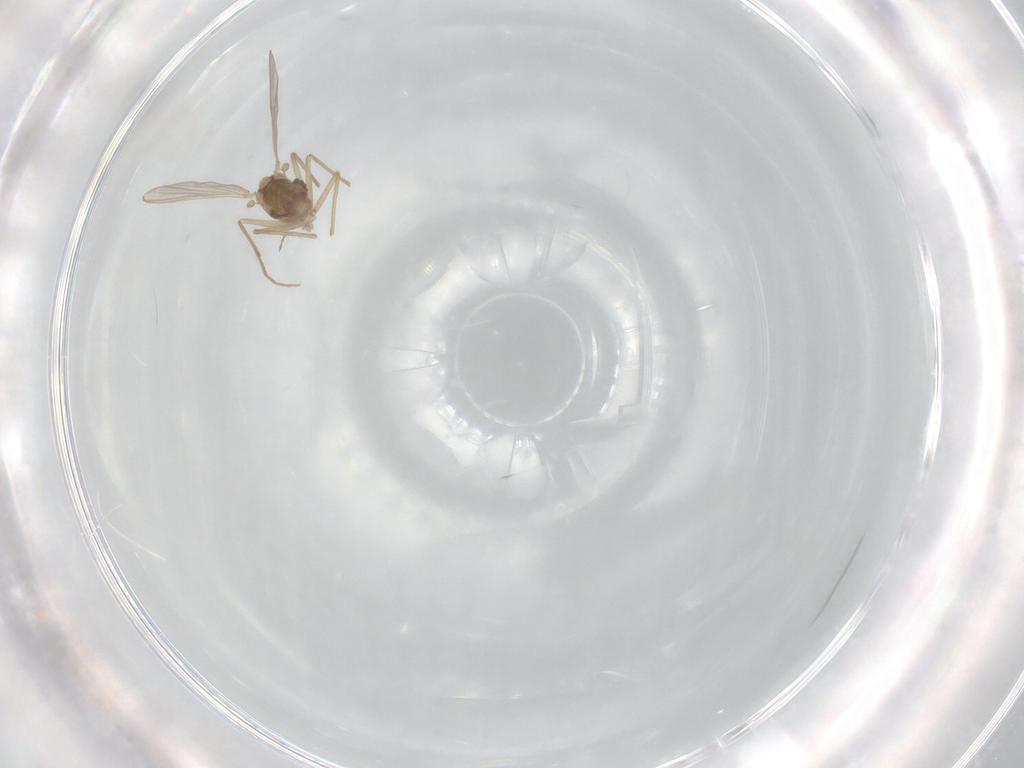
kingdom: Animalia
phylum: Arthropoda
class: Insecta
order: Diptera
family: Chironomidae
